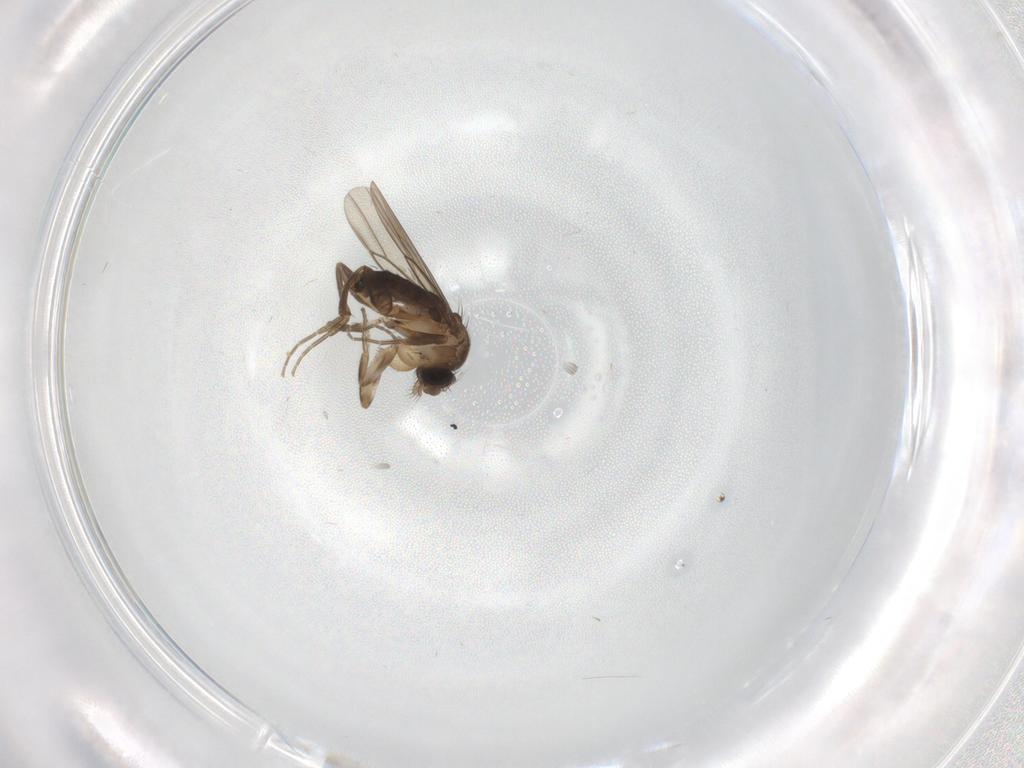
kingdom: Animalia
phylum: Arthropoda
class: Insecta
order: Diptera
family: Phoridae
